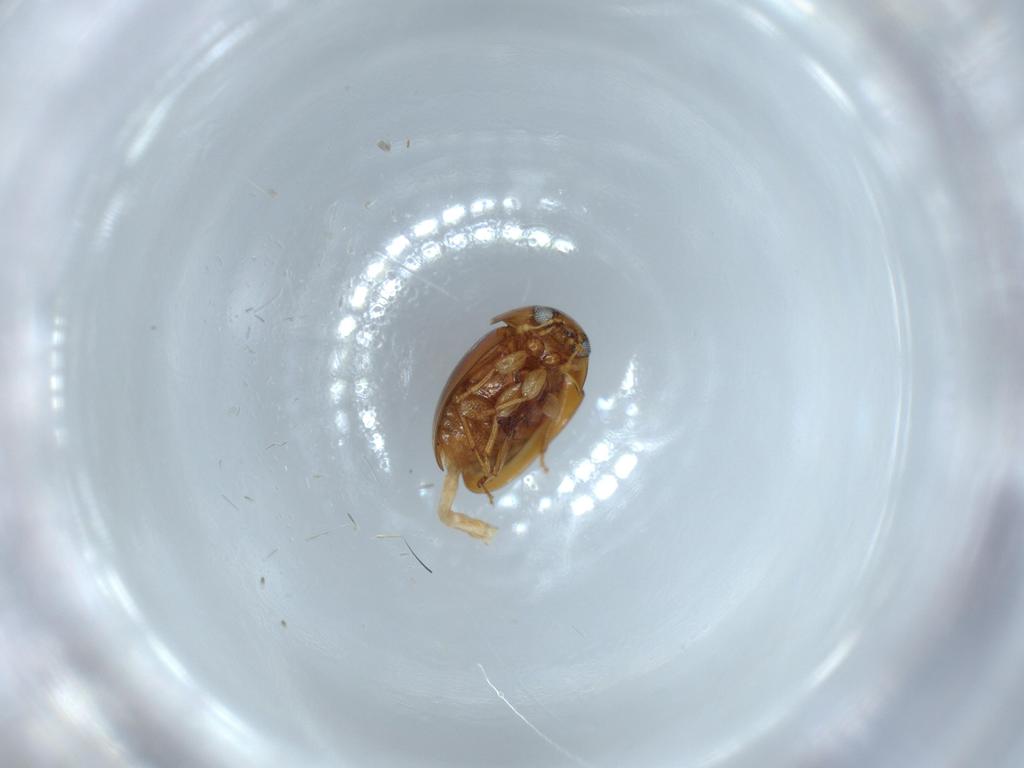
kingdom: Animalia
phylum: Arthropoda
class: Insecta
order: Coleoptera
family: Phalacridae
